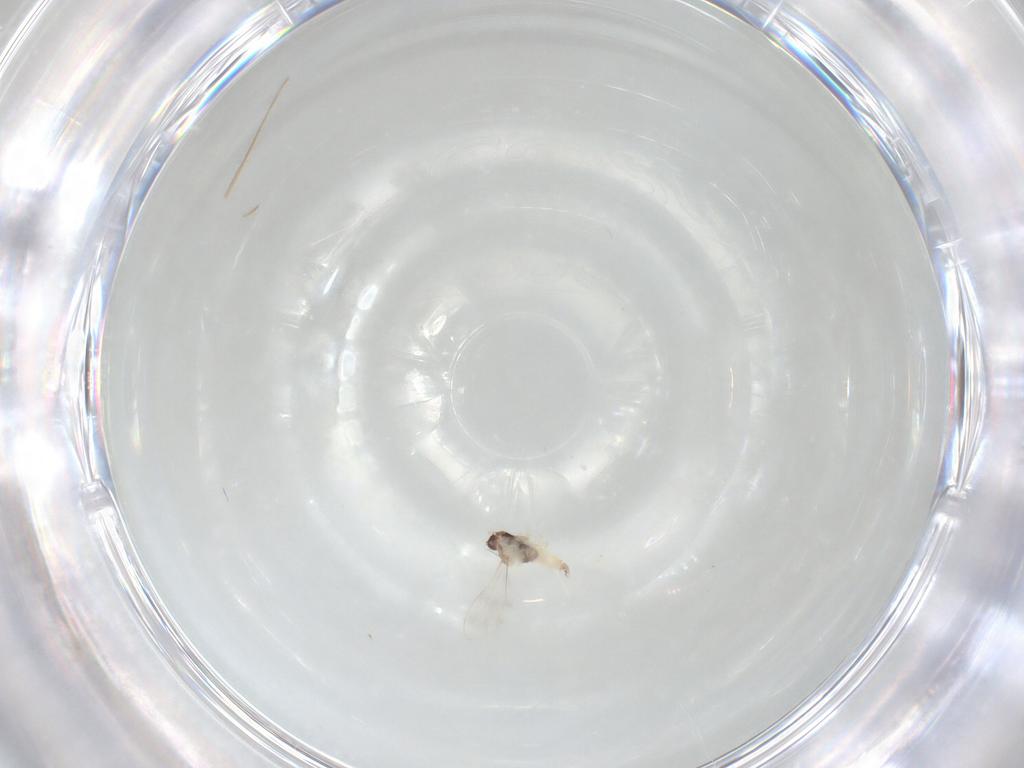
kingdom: Animalia
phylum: Arthropoda
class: Insecta
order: Diptera
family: Cecidomyiidae
